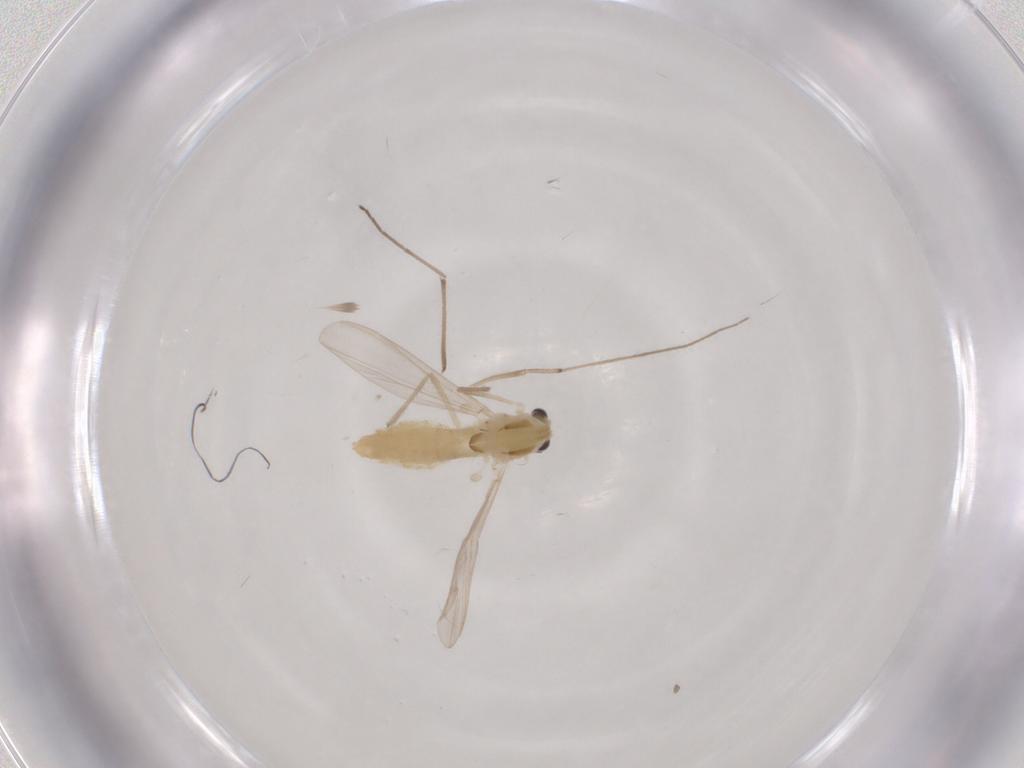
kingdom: Animalia
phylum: Arthropoda
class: Insecta
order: Diptera
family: Chironomidae
